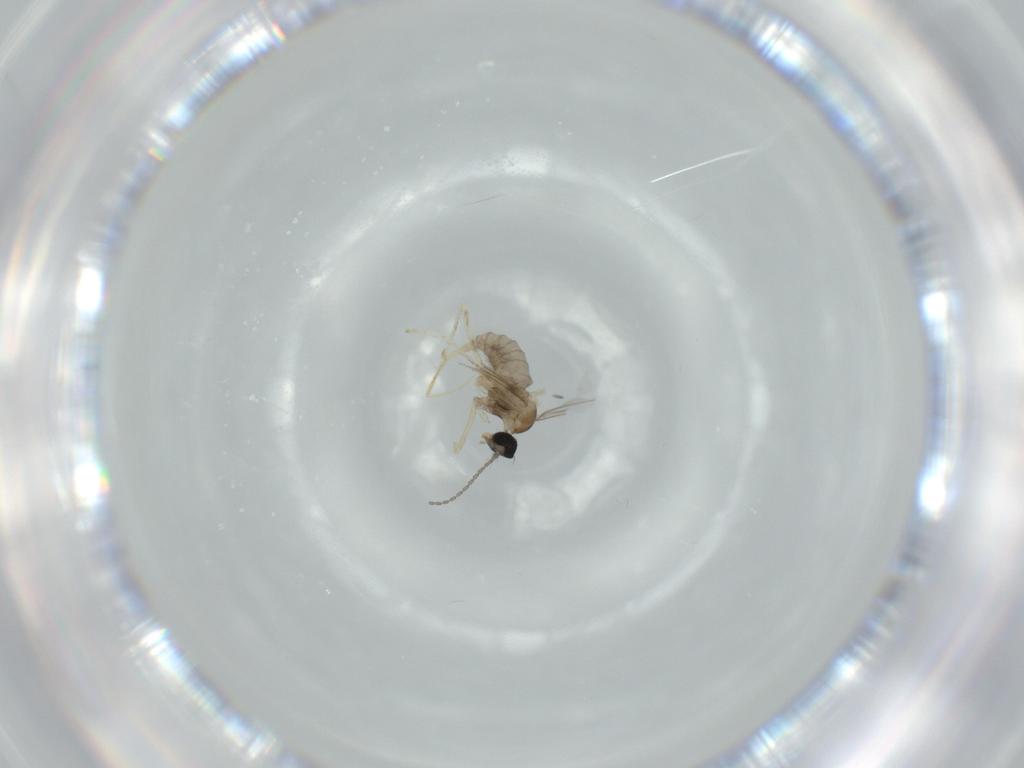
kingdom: Animalia
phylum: Arthropoda
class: Insecta
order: Diptera
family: Cecidomyiidae
